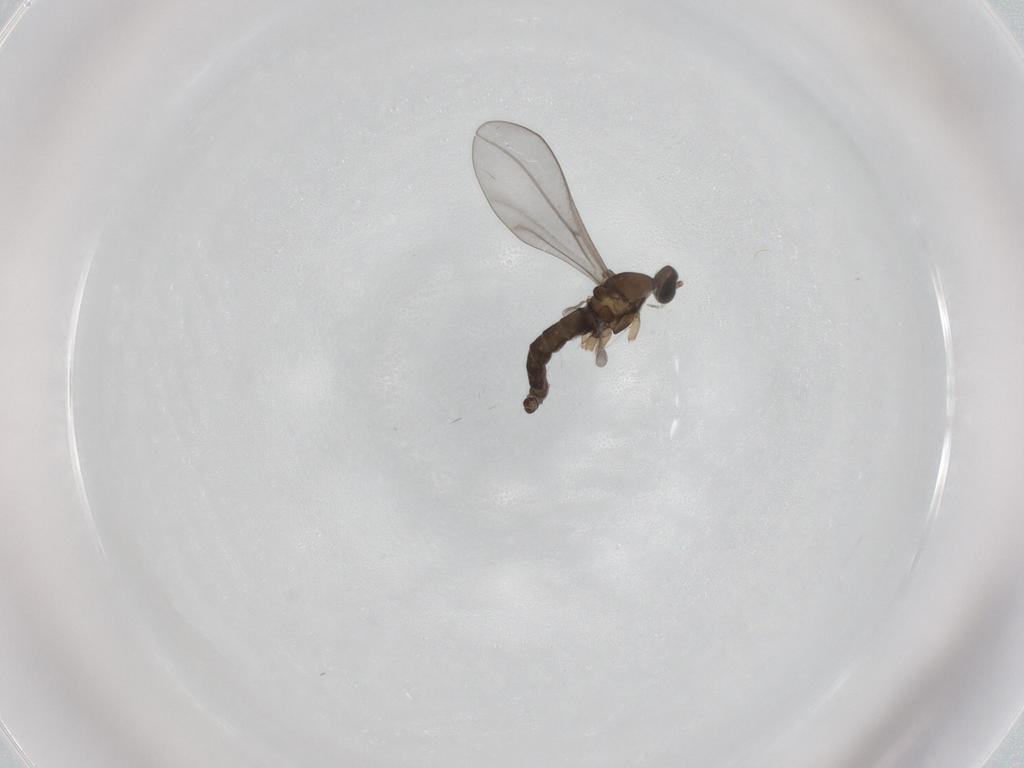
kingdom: Animalia
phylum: Arthropoda
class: Insecta
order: Diptera
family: Cecidomyiidae
